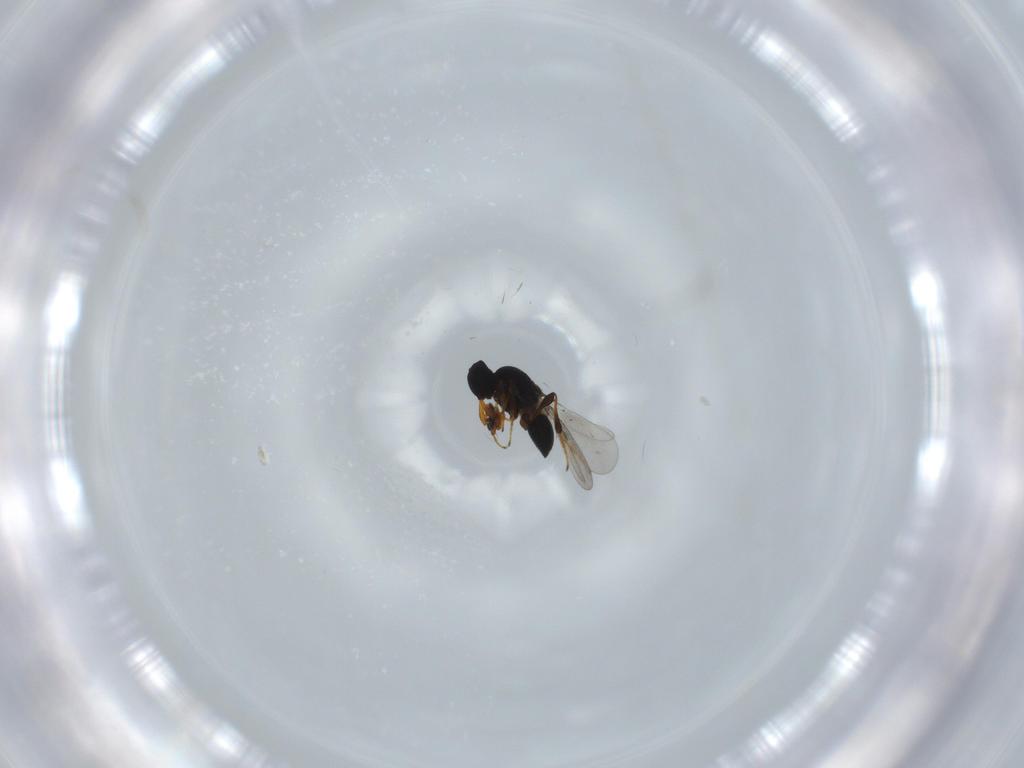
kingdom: Animalia
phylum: Arthropoda
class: Insecta
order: Hymenoptera
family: Platygastridae
